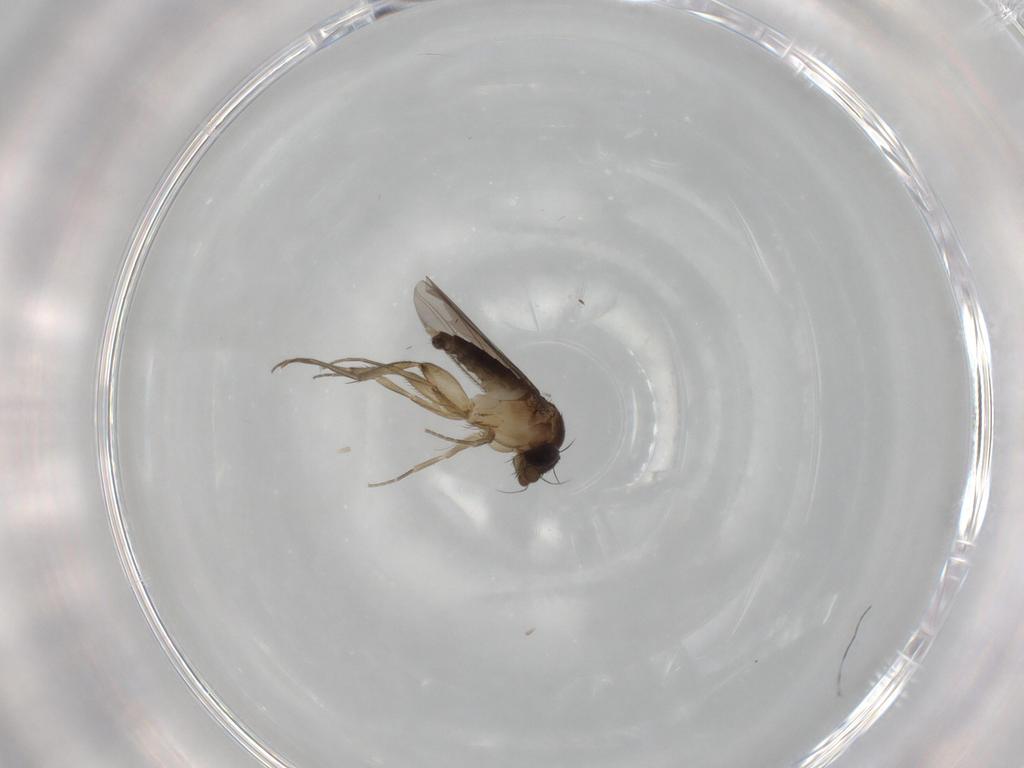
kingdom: Animalia
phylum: Arthropoda
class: Insecta
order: Diptera
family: Phoridae
